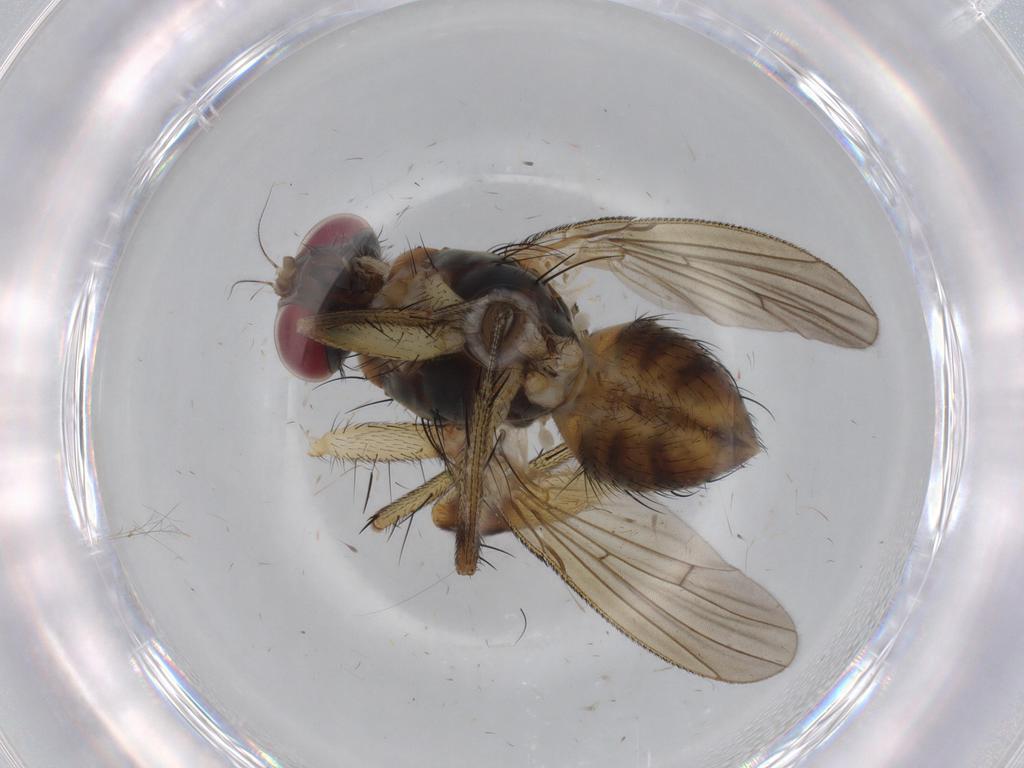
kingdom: Animalia
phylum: Arthropoda
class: Insecta
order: Diptera
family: Muscidae
